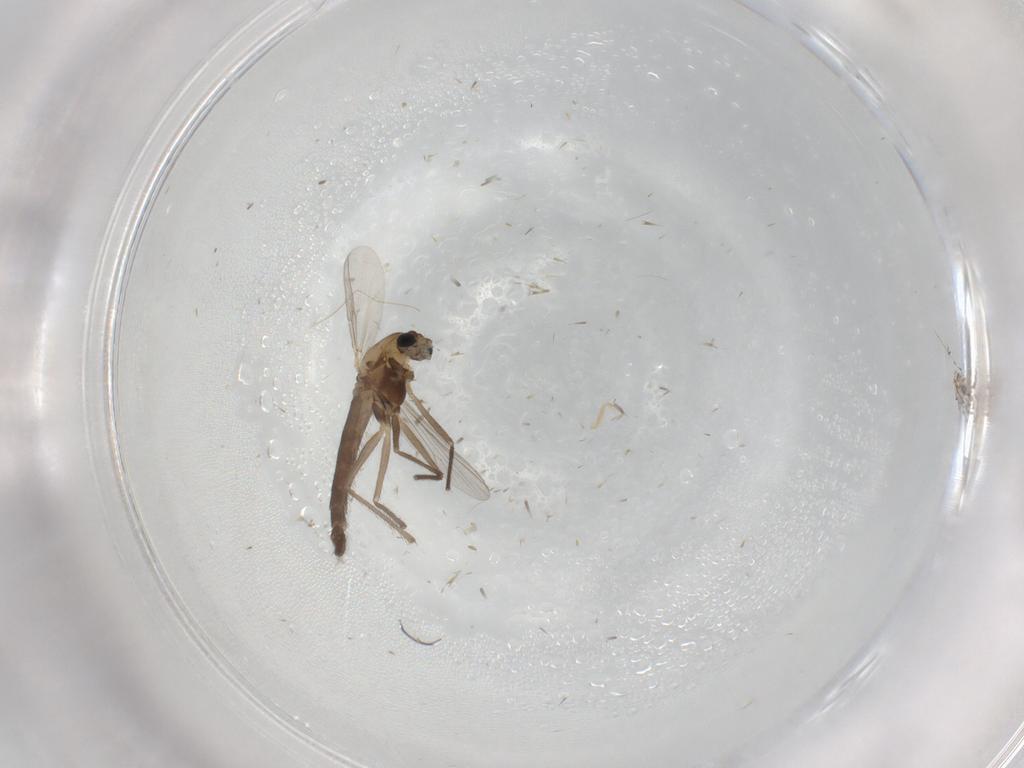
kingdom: Animalia
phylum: Arthropoda
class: Insecta
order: Diptera
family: Chironomidae
